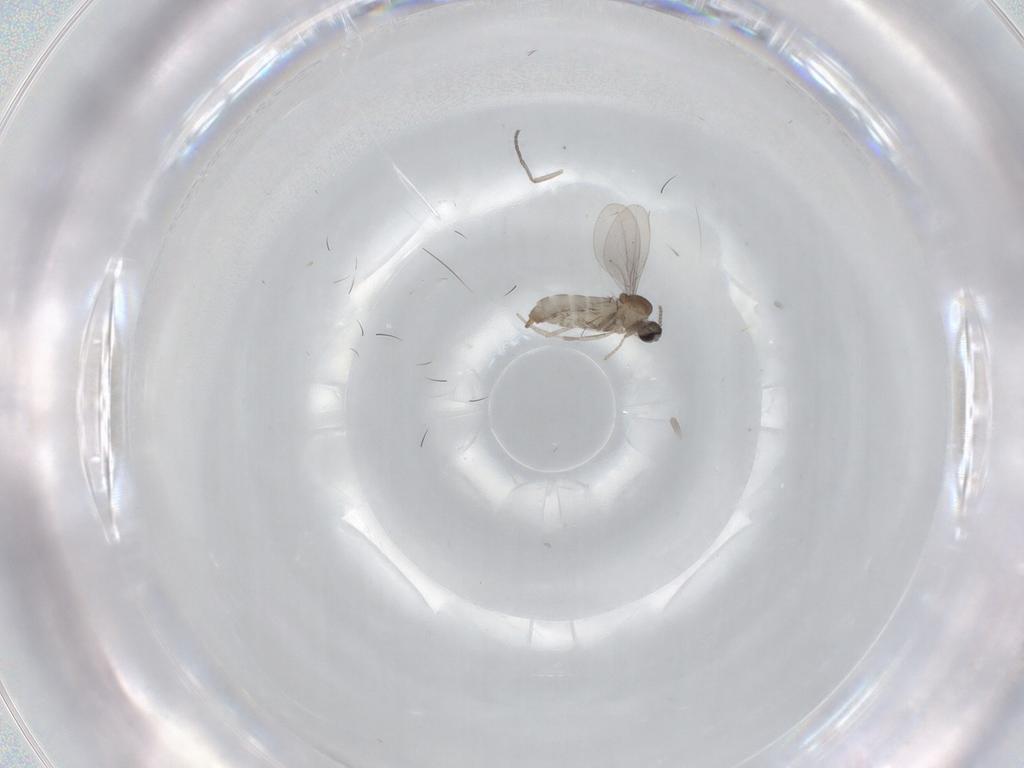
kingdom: Animalia
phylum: Arthropoda
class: Insecta
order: Diptera
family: Cecidomyiidae
